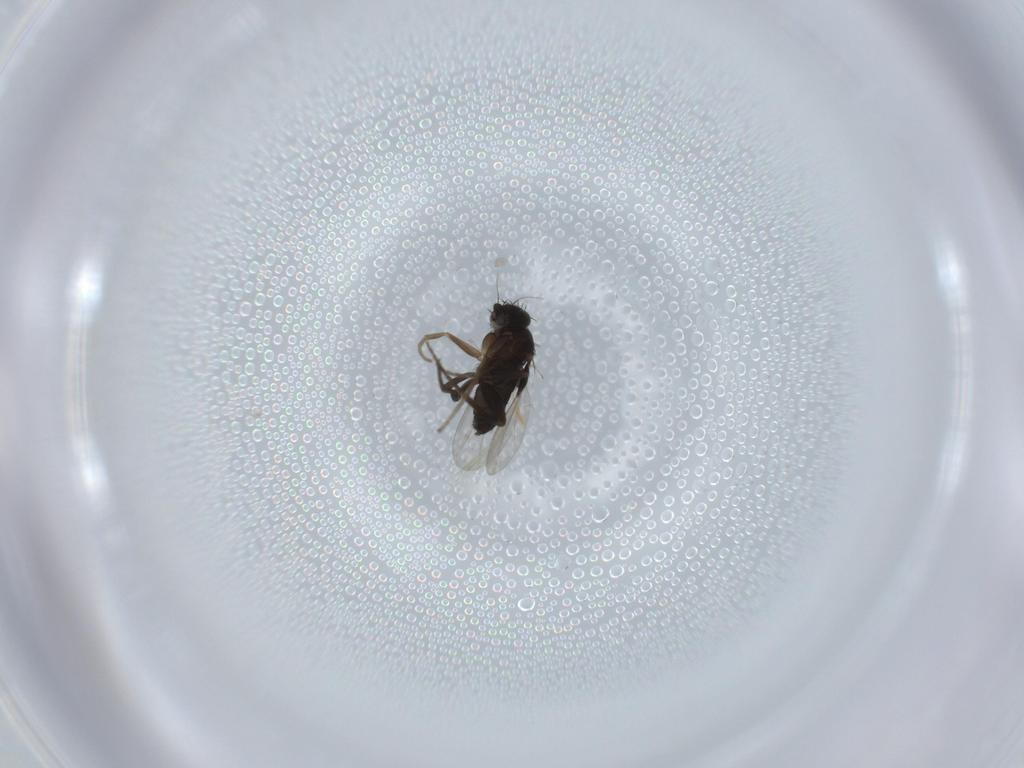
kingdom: Animalia
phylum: Arthropoda
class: Insecta
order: Diptera
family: Phoridae
